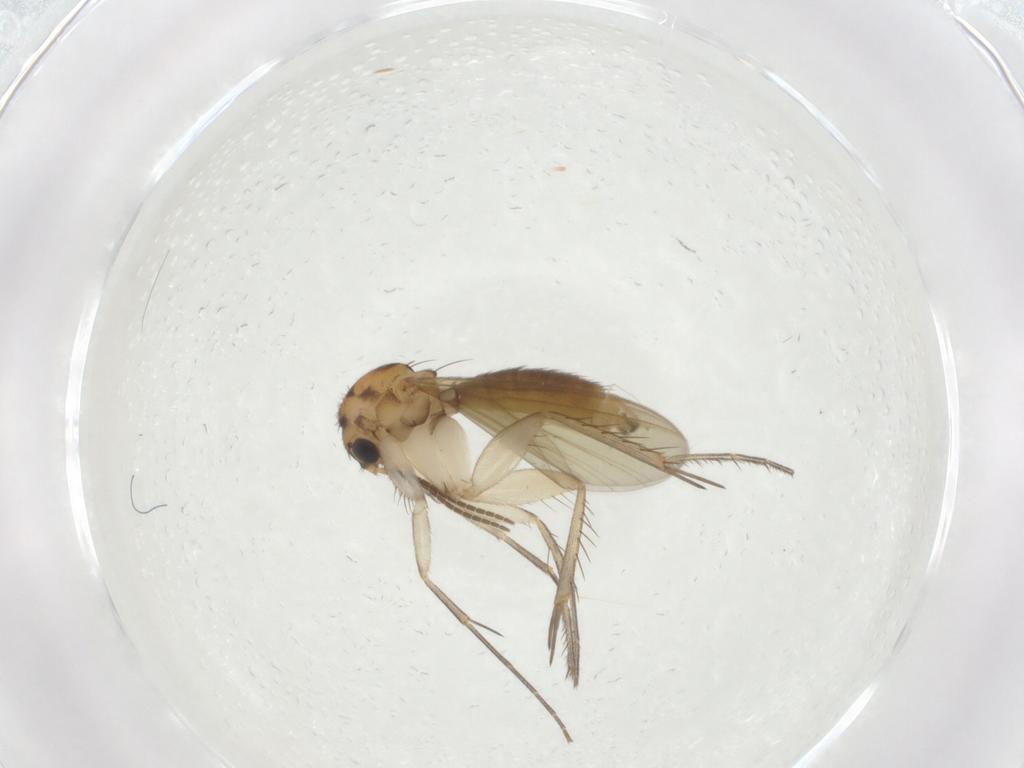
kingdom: Animalia
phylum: Arthropoda
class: Insecta
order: Diptera
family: Mycetophilidae
